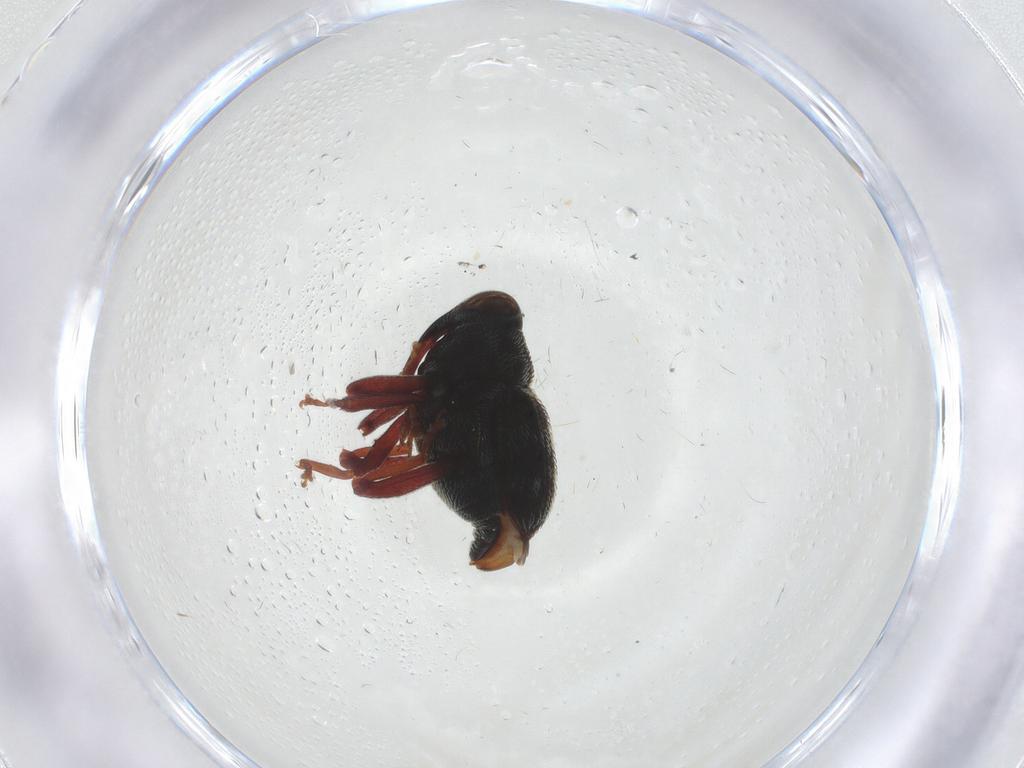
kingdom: Animalia
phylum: Arthropoda
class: Insecta
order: Coleoptera
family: Curculionidae
